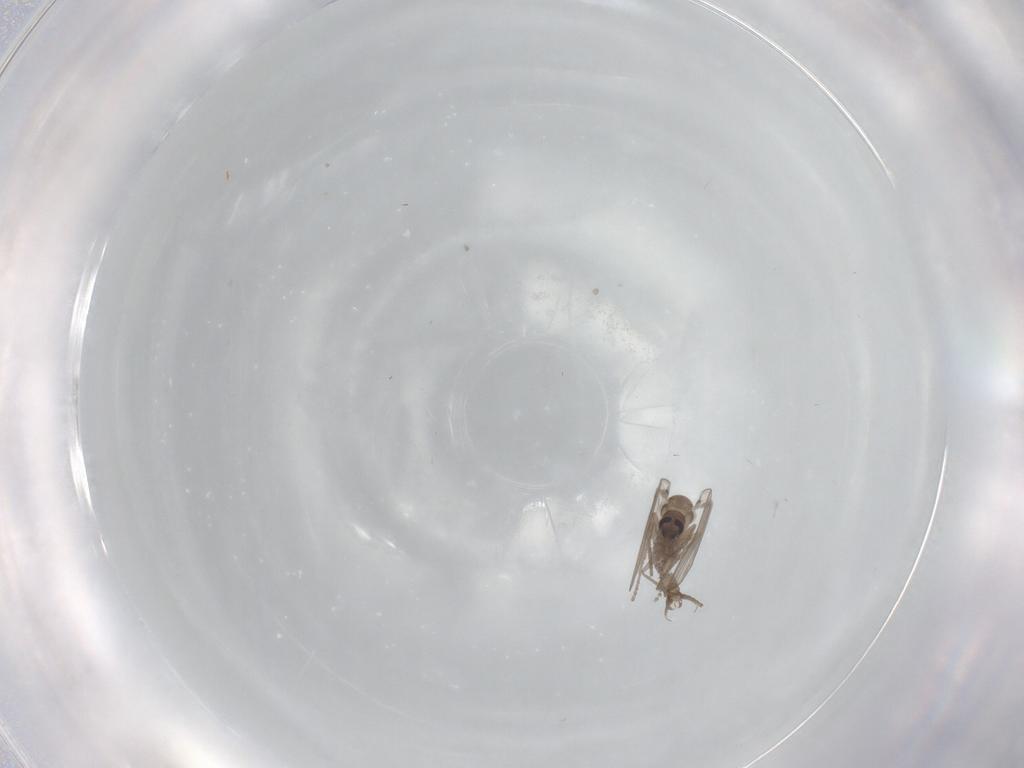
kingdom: Animalia
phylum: Arthropoda
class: Insecta
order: Diptera
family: Psychodidae
